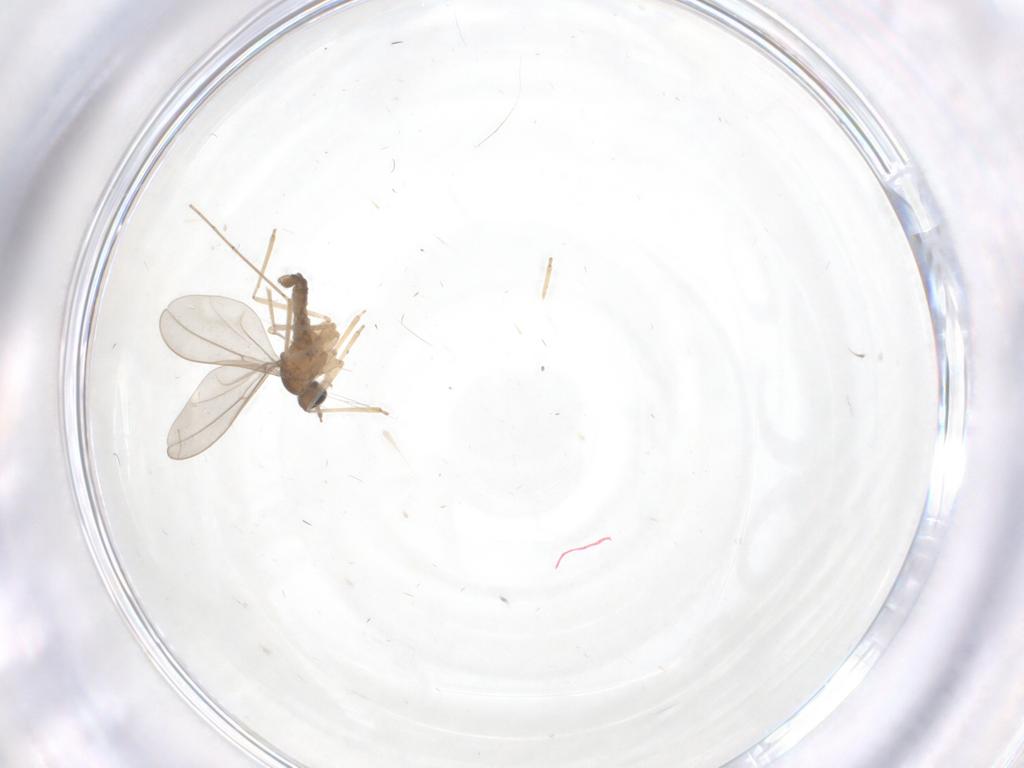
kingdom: Animalia
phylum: Arthropoda
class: Insecta
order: Diptera
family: Cecidomyiidae
